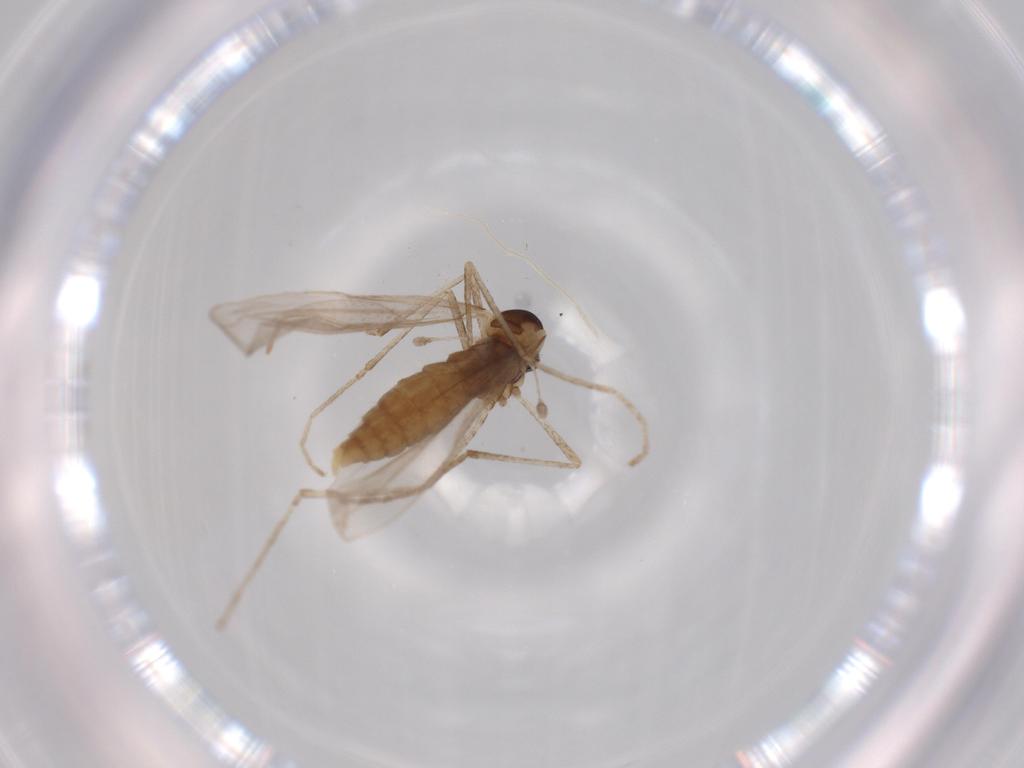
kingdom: Animalia
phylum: Arthropoda
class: Insecta
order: Diptera
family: Cecidomyiidae
